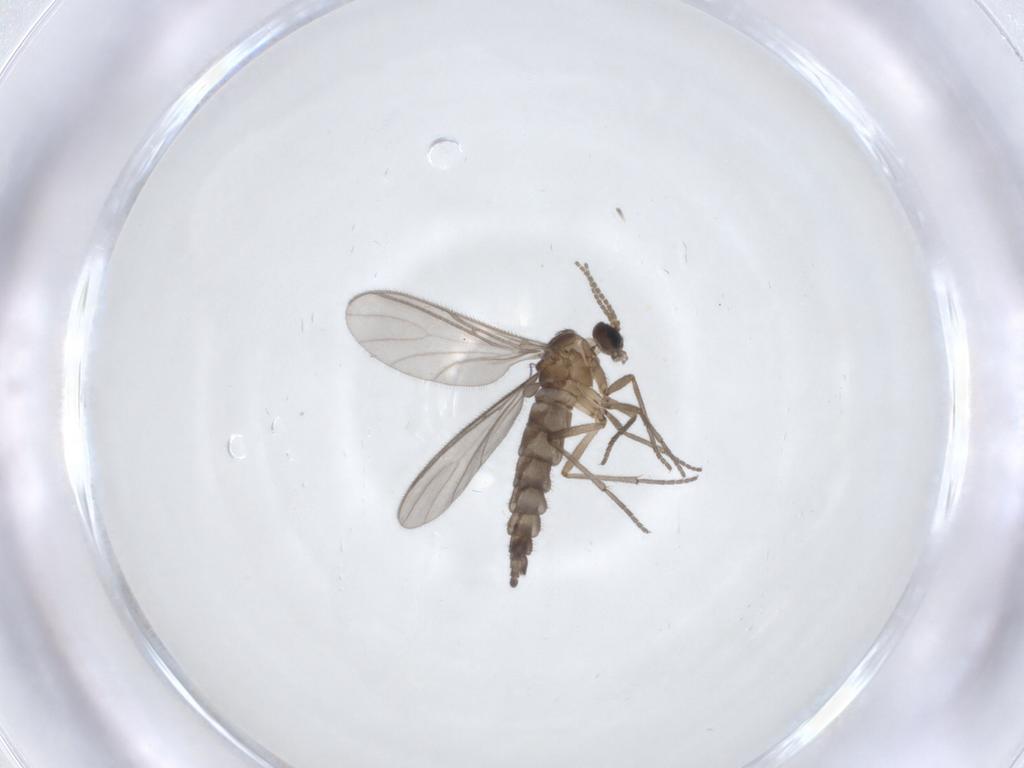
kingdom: Animalia
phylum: Arthropoda
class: Insecta
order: Diptera
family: Sciaridae
